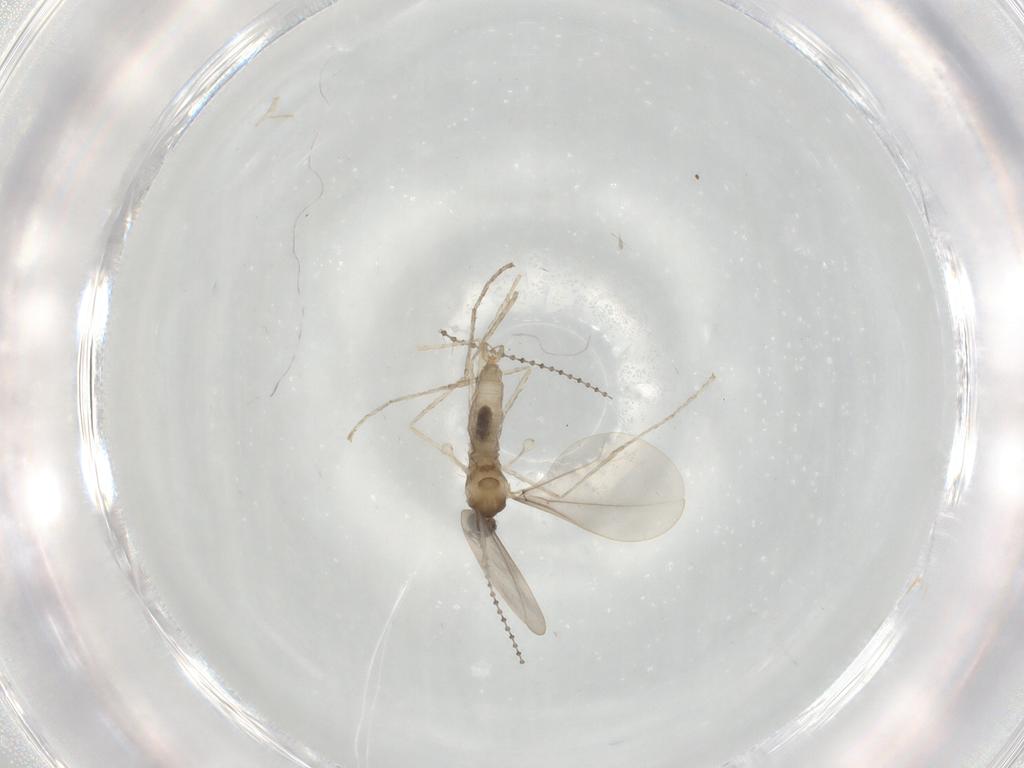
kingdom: Animalia
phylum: Arthropoda
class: Insecta
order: Diptera
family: Cecidomyiidae
